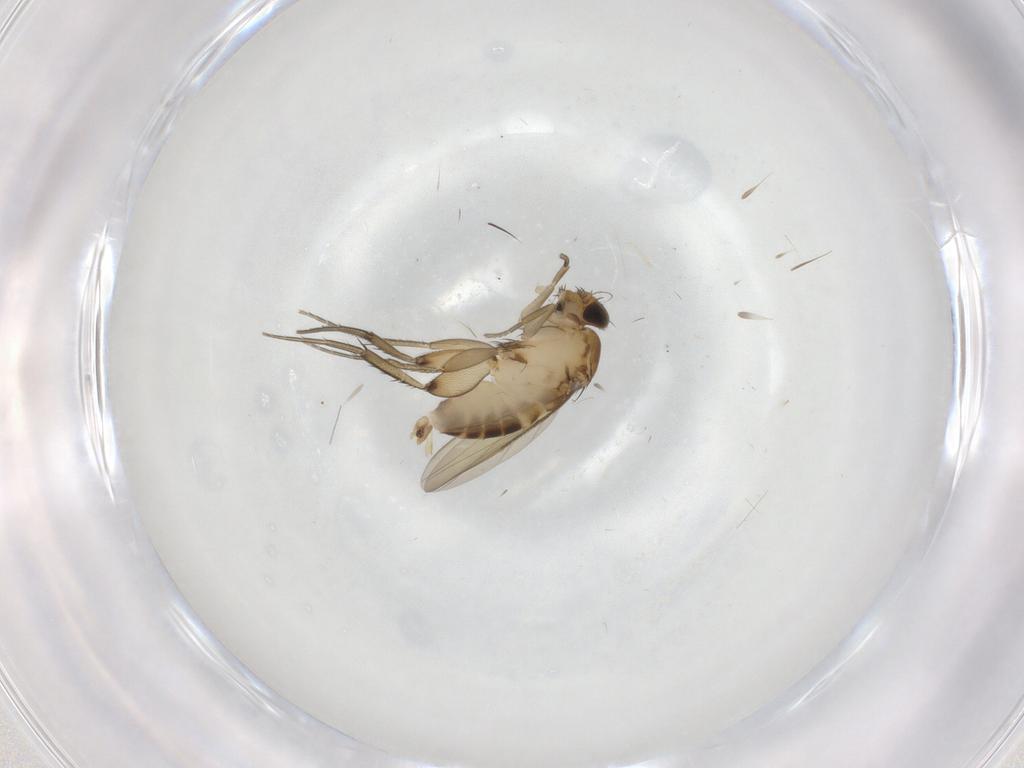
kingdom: Animalia
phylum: Arthropoda
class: Insecta
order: Diptera
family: Phoridae
